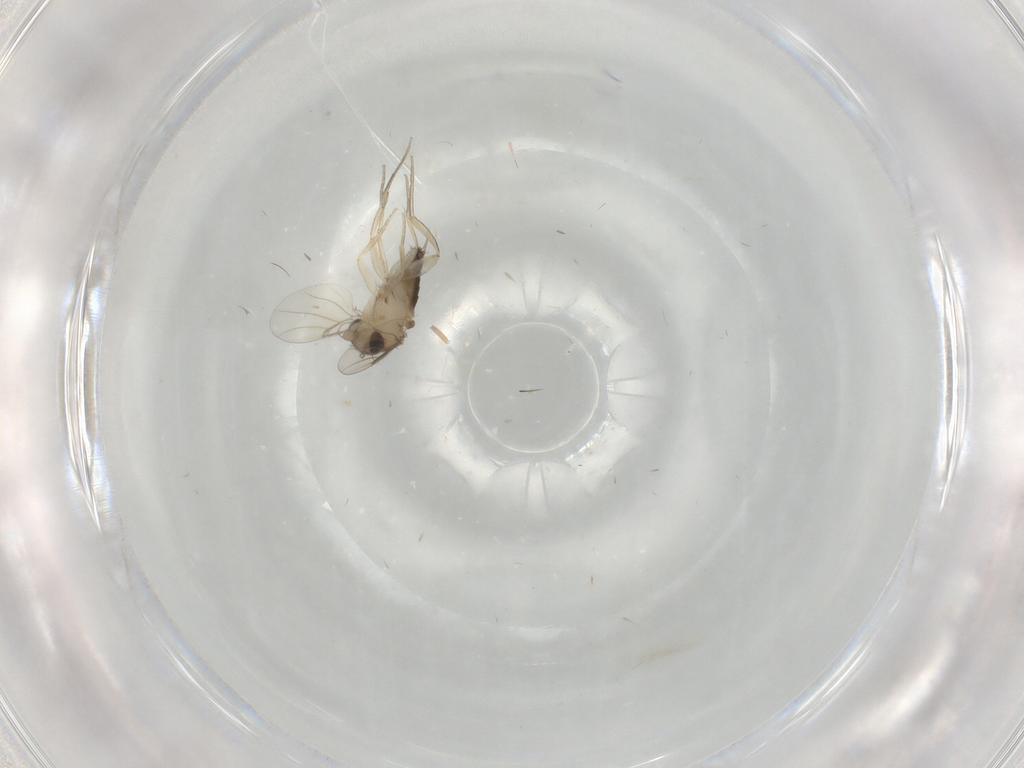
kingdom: Animalia
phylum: Arthropoda
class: Insecta
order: Diptera
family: Phoridae
